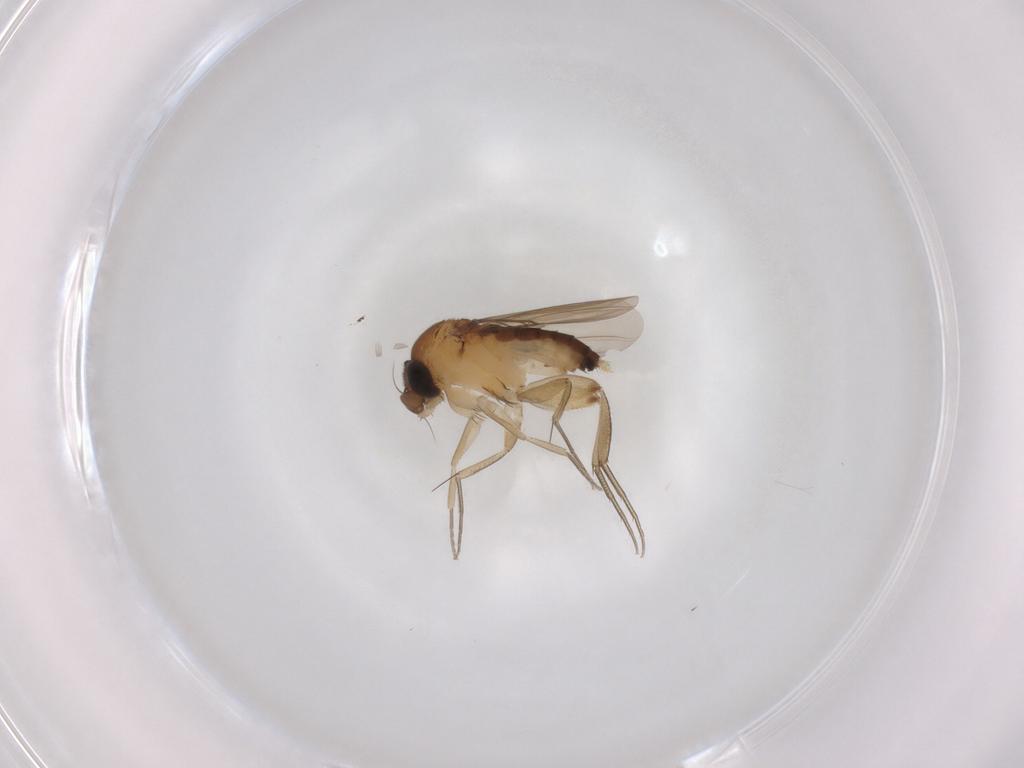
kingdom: Animalia
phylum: Arthropoda
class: Insecta
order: Diptera
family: Phoridae
